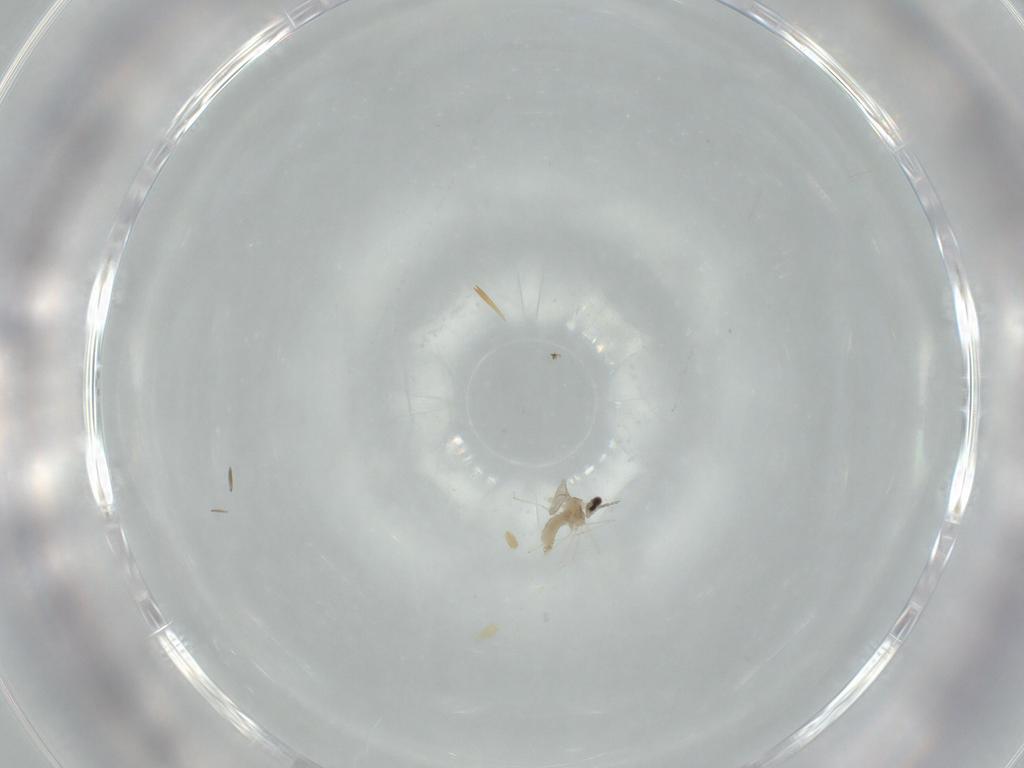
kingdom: Animalia
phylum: Arthropoda
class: Insecta
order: Diptera
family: Cecidomyiidae
